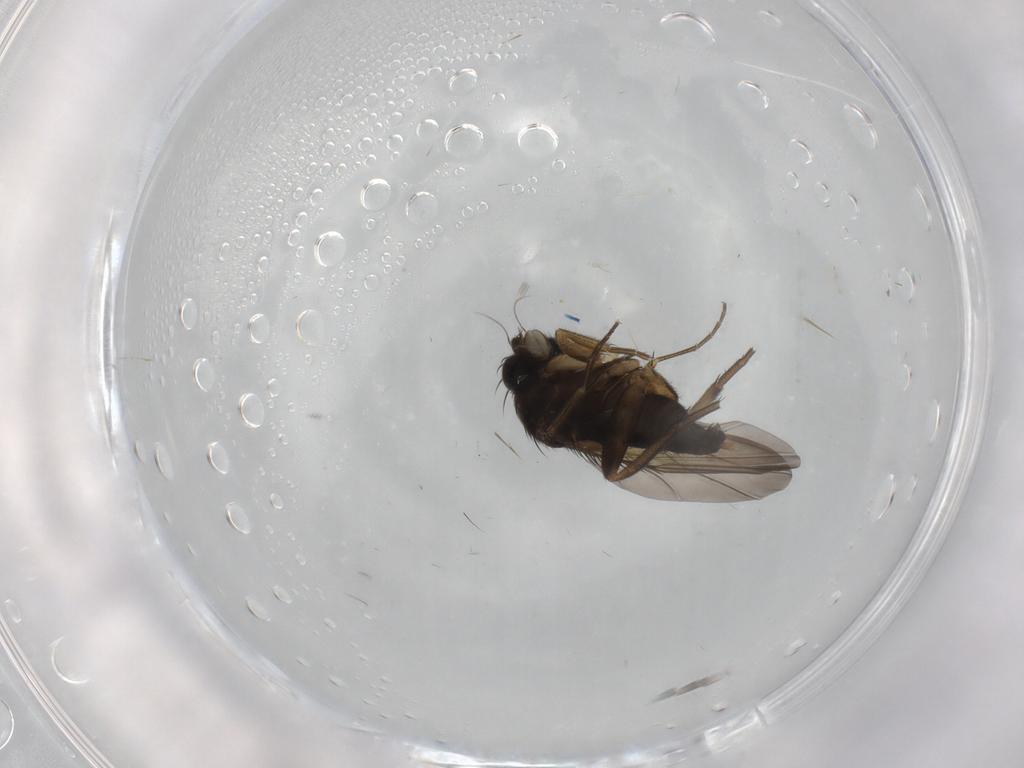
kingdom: Animalia
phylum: Arthropoda
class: Insecta
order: Diptera
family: Phoridae
